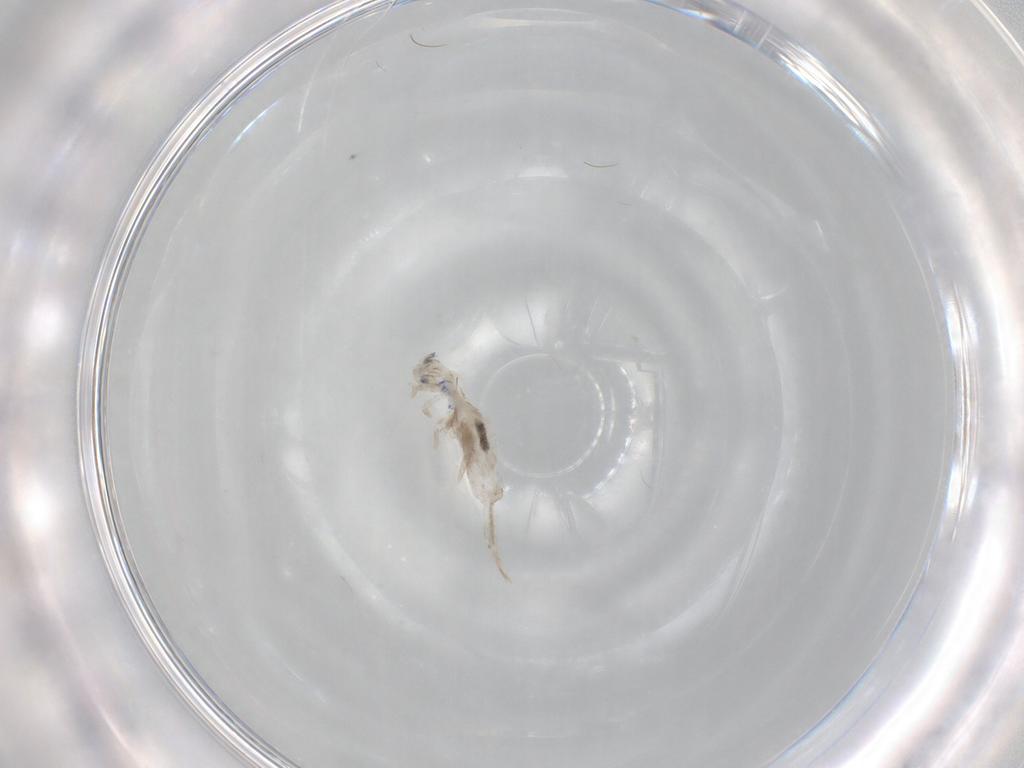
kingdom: Animalia
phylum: Arthropoda
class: Collembola
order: Entomobryomorpha
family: Entomobryidae
